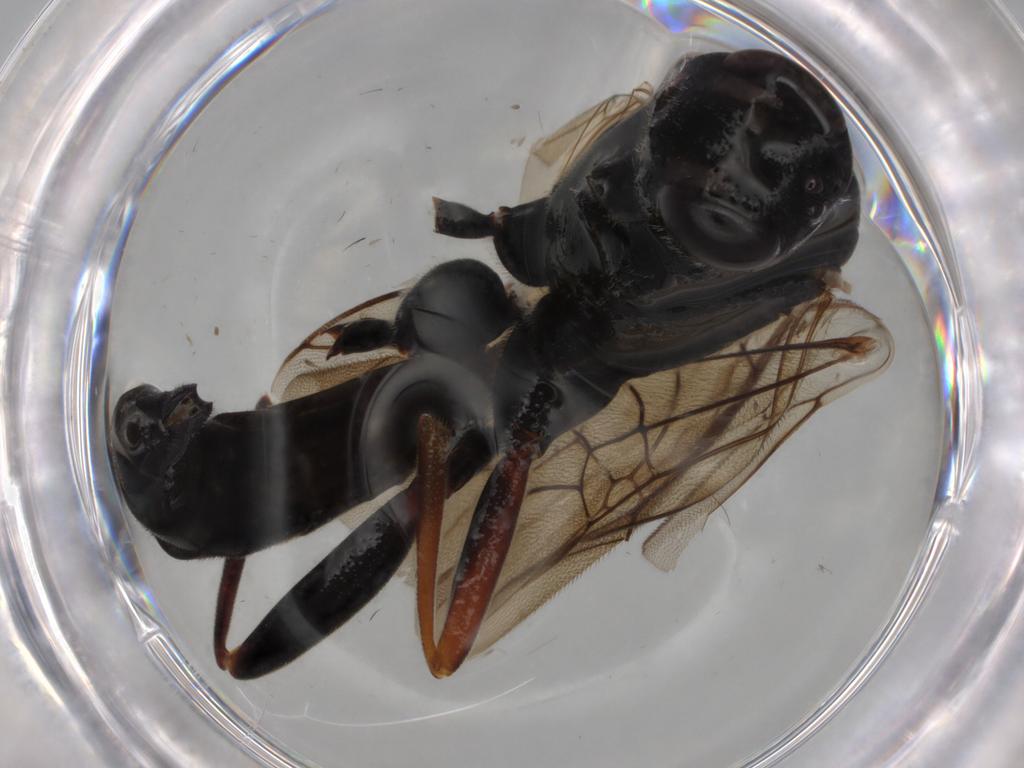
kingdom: Animalia
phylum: Arthropoda
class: Insecta
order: Hymenoptera
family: Ichneumonidae
